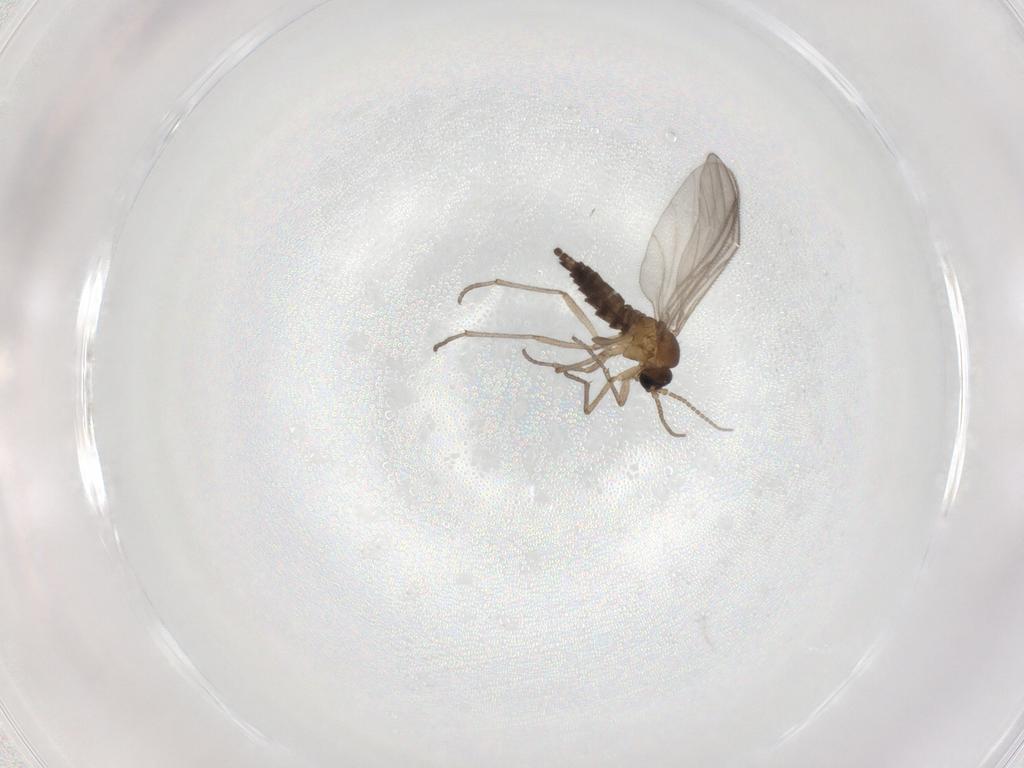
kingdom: Animalia
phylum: Arthropoda
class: Insecta
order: Diptera
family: Sciaridae
